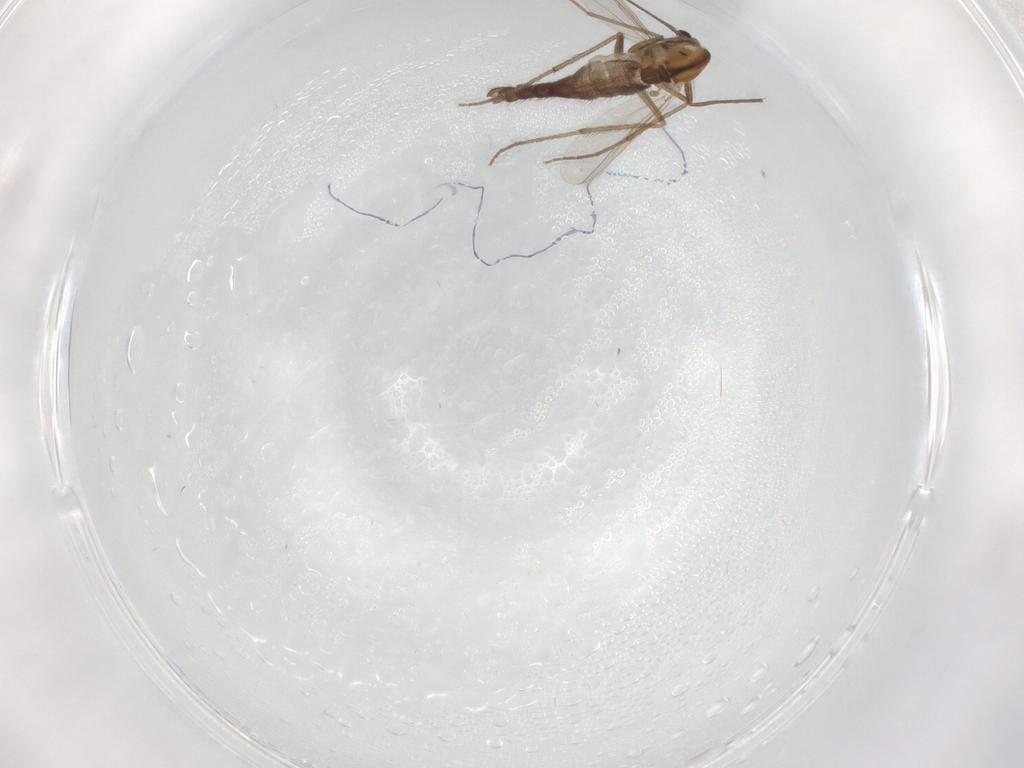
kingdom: Animalia
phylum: Arthropoda
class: Insecta
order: Diptera
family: Chironomidae
